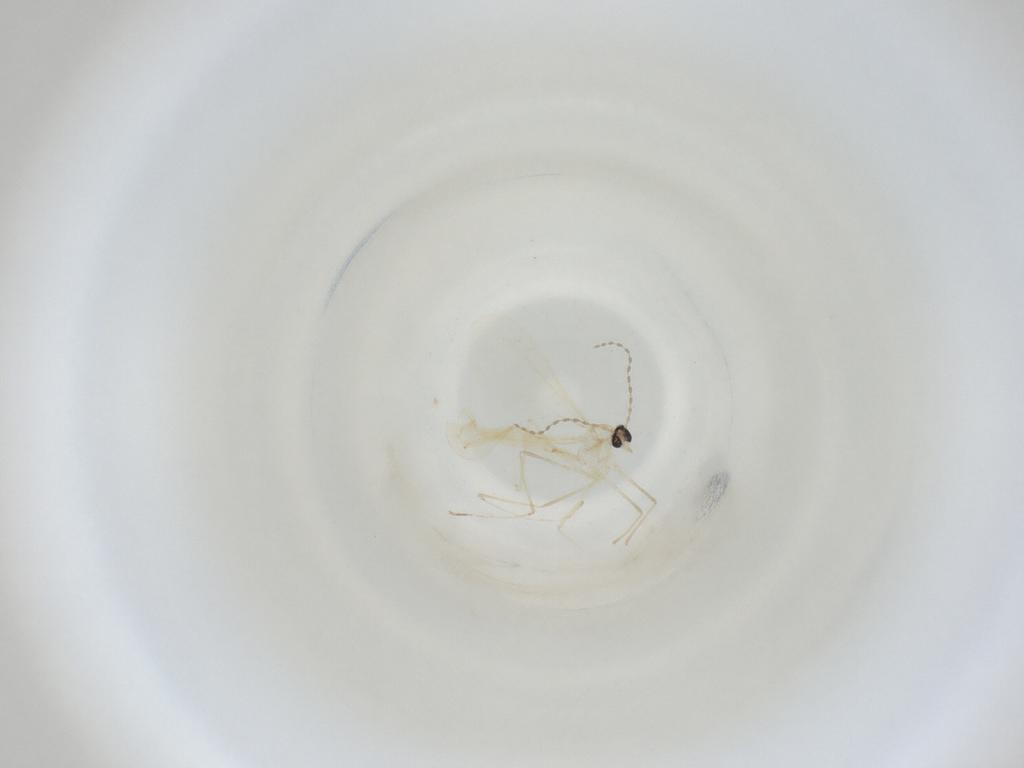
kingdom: Animalia
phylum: Arthropoda
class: Insecta
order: Diptera
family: Cecidomyiidae
